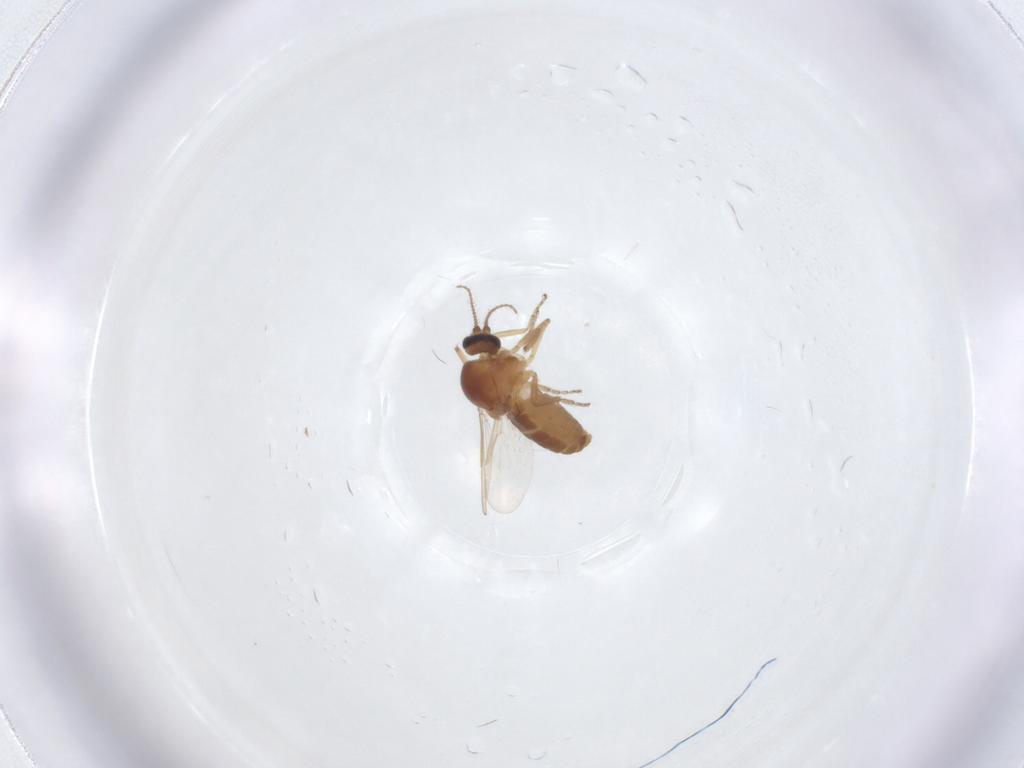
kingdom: Animalia
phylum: Arthropoda
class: Insecta
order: Diptera
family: Ceratopogonidae
